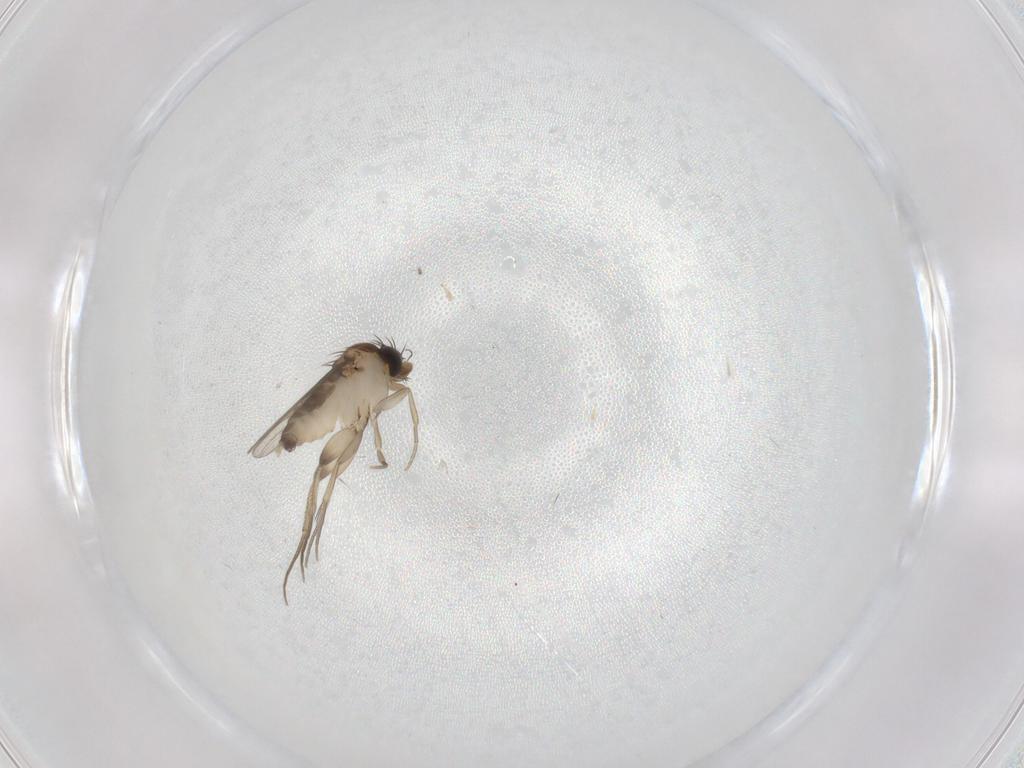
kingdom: Animalia
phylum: Arthropoda
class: Insecta
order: Diptera
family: Phoridae
